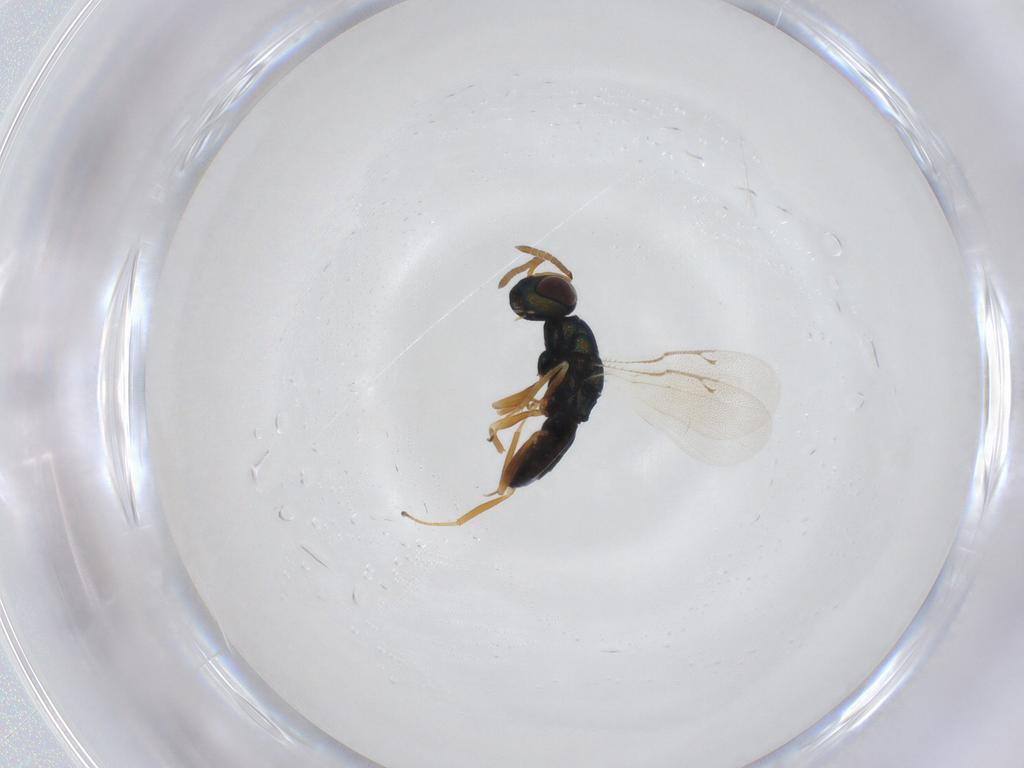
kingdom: Animalia
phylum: Arthropoda
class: Insecta
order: Hymenoptera
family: Pteromalidae
